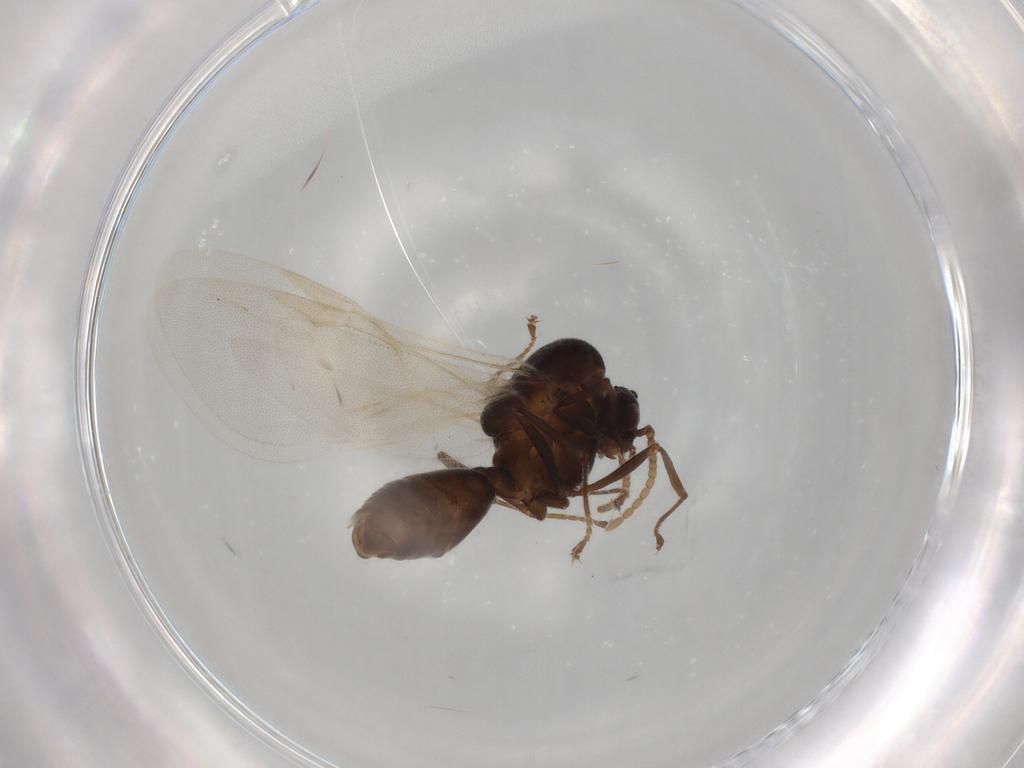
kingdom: Animalia
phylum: Arthropoda
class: Insecta
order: Hymenoptera
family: Formicidae
